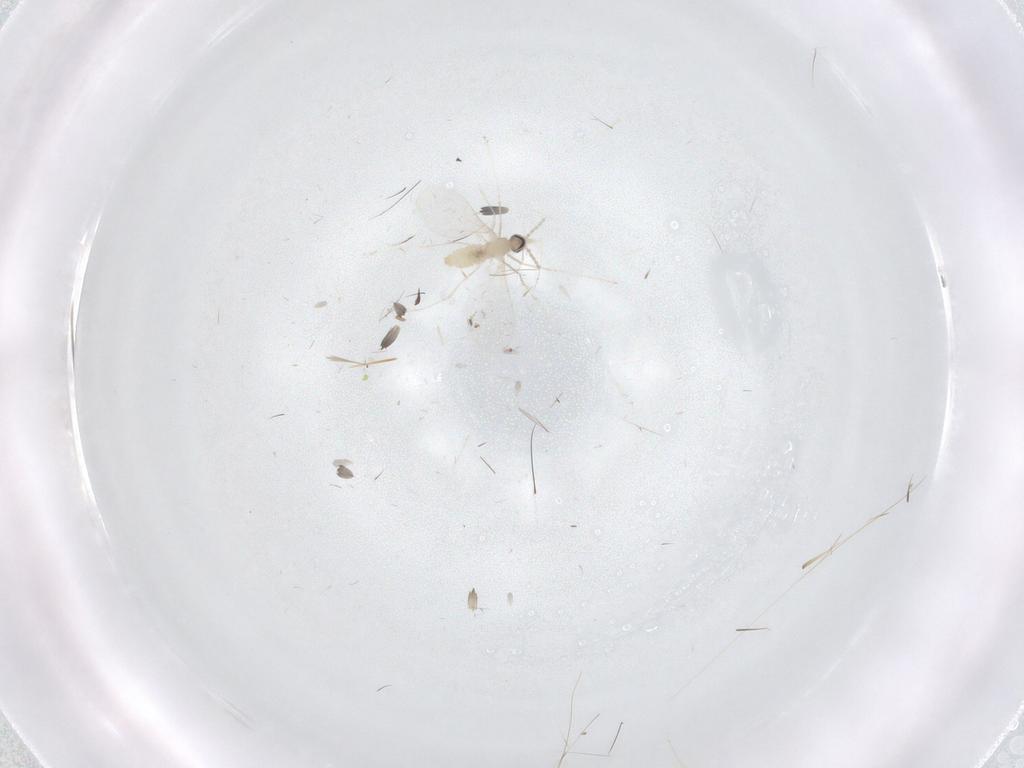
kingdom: Animalia
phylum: Arthropoda
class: Insecta
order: Diptera
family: Cecidomyiidae
